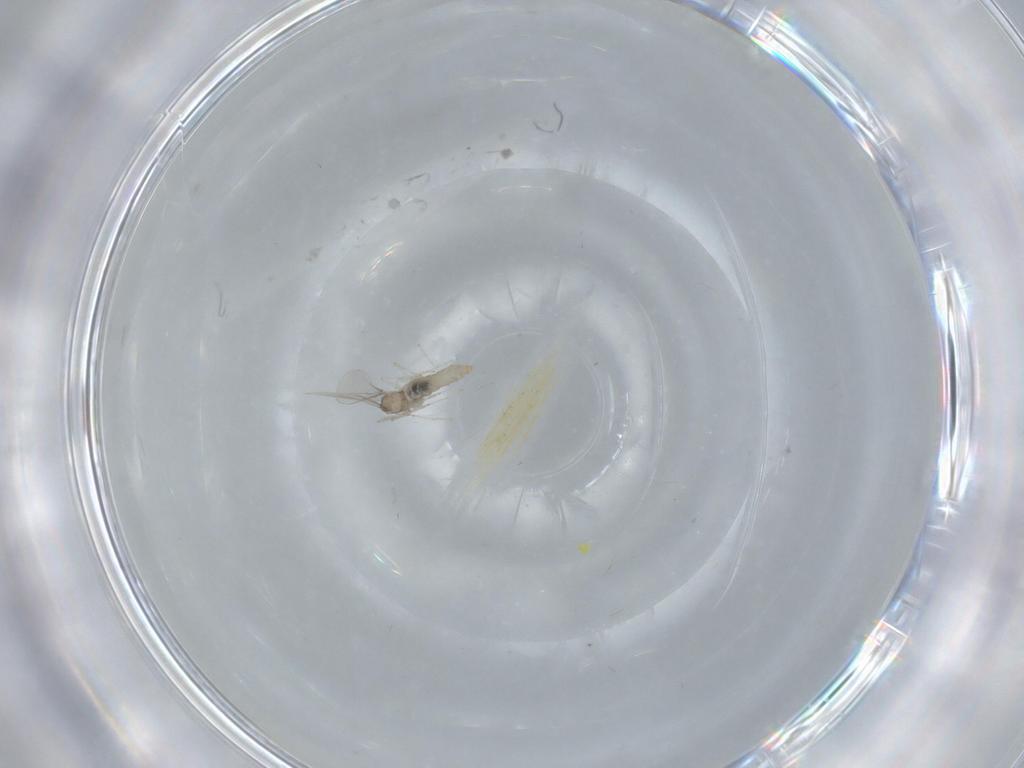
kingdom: Animalia
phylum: Arthropoda
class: Insecta
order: Diptera
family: Cecidomyiidae
